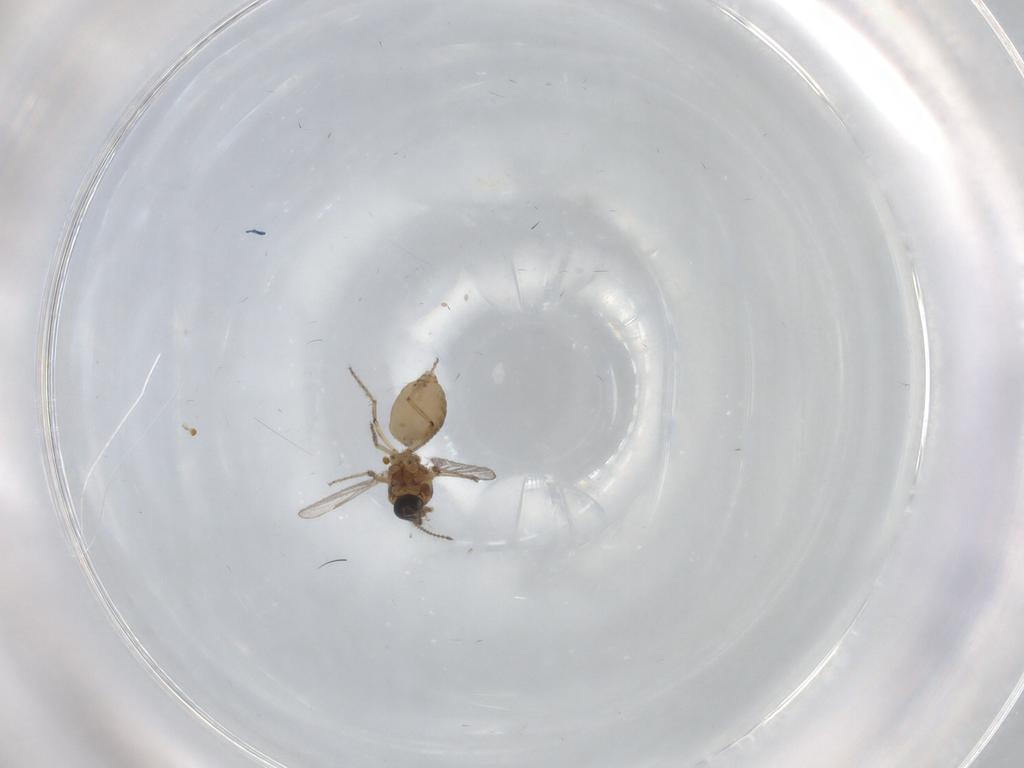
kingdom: Animalia
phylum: Arthropoda
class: Insecta
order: Diptera
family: Ceratopogonidae
